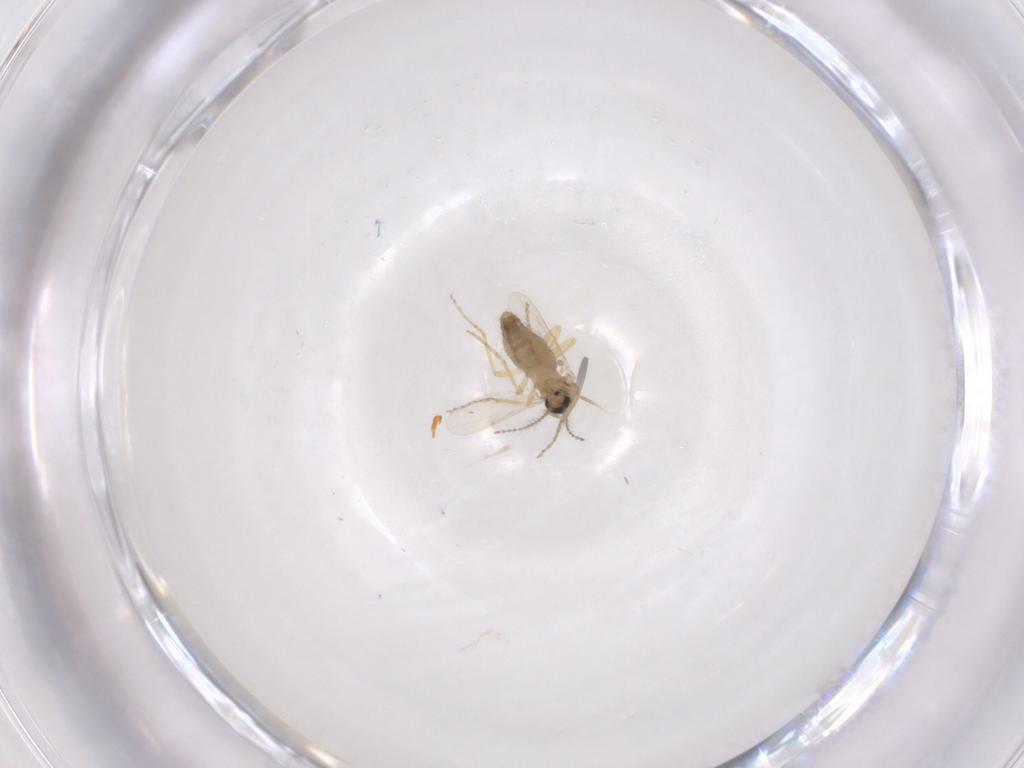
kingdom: Animalia
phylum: Arthropoda
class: Insecta
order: Diptera
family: Ceratopogonidae
